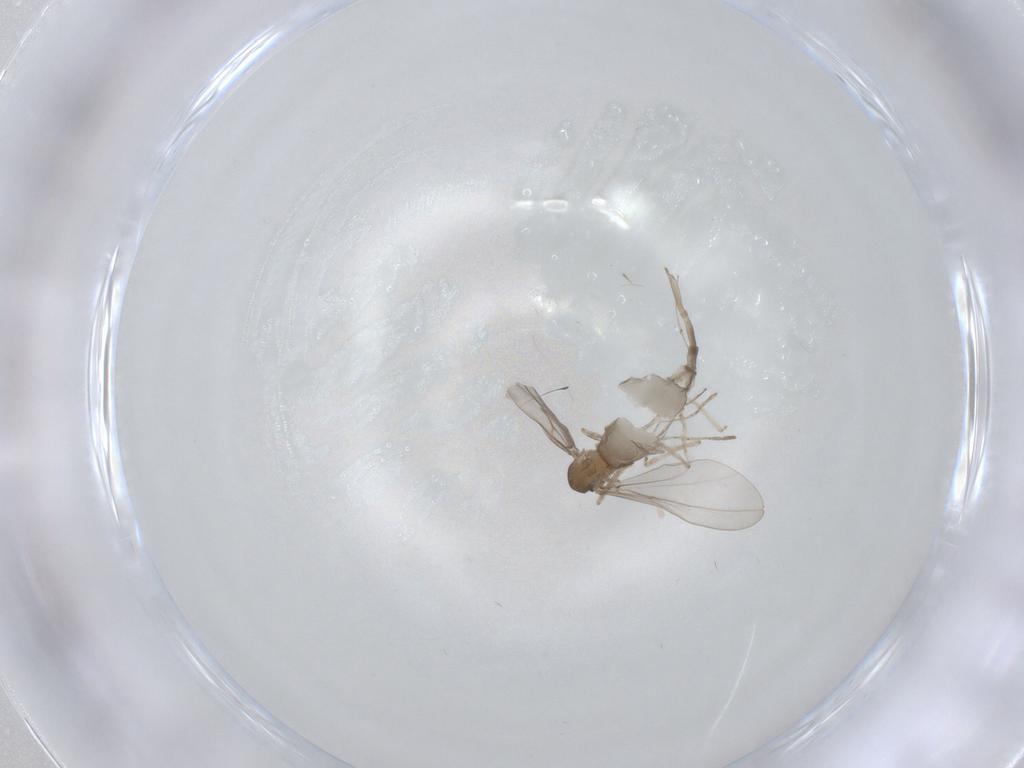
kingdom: Animalia
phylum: Arthropoda
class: Insecta
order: Diptera
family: Cecidomyiidae
